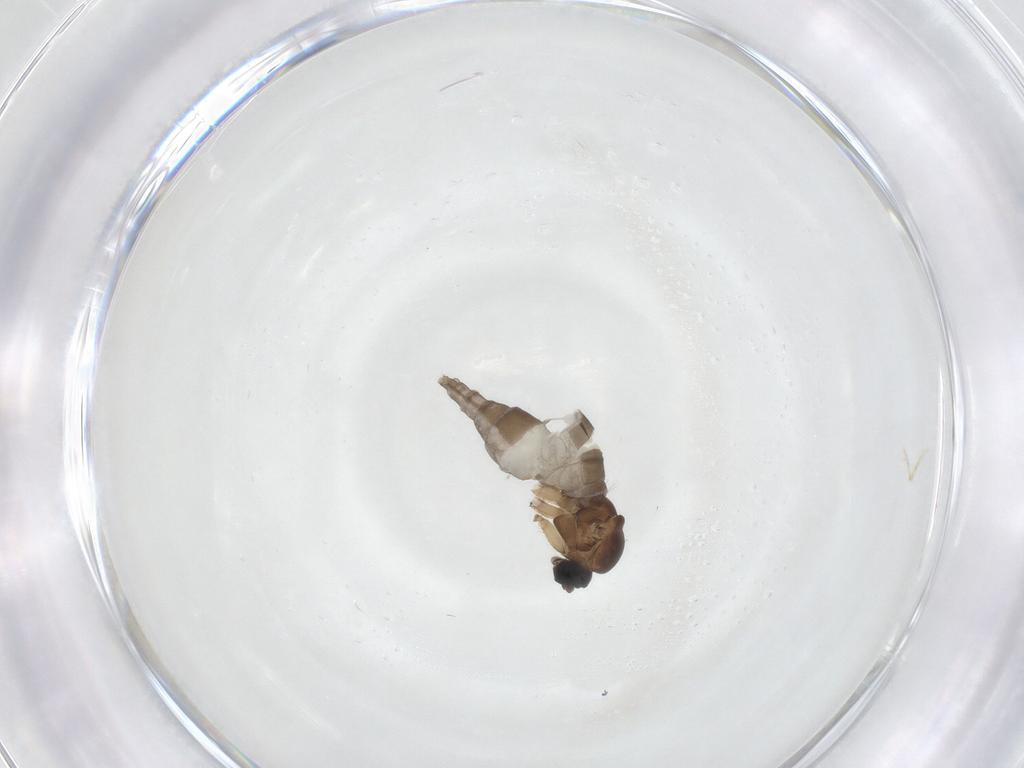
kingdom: Animalia
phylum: Arthropoda
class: Insecta
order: Diptera
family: Sciaridae
